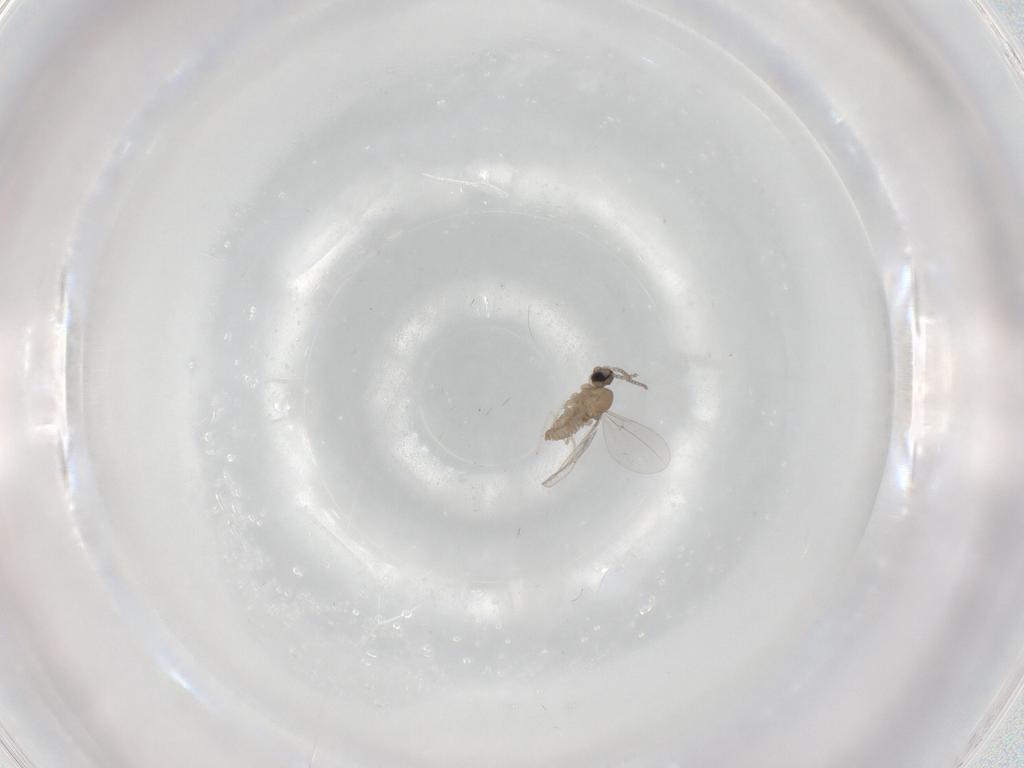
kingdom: Animalia
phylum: Arthropoda
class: Insecta
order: Diptera
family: Cecidomyiidae
